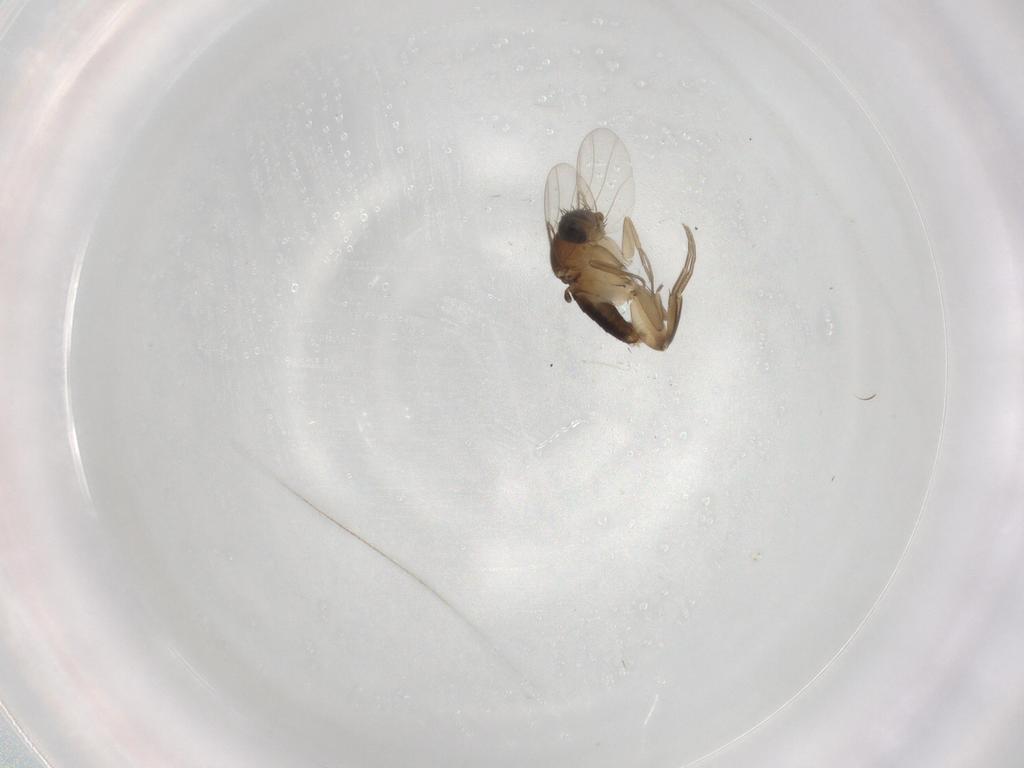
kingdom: Animalia
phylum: Arthropoda
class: Insecta
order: Diptera
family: Phoridae
